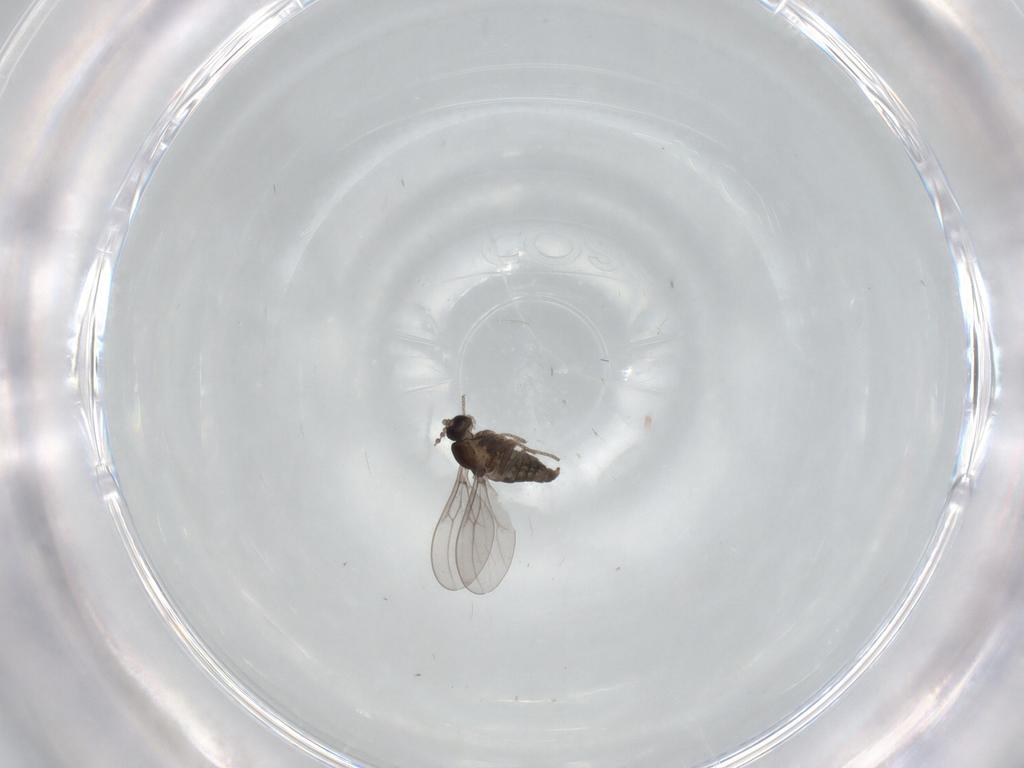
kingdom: Animalia
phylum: Arthropoda
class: Insecta
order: Diptera
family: Cecidomyiidae
